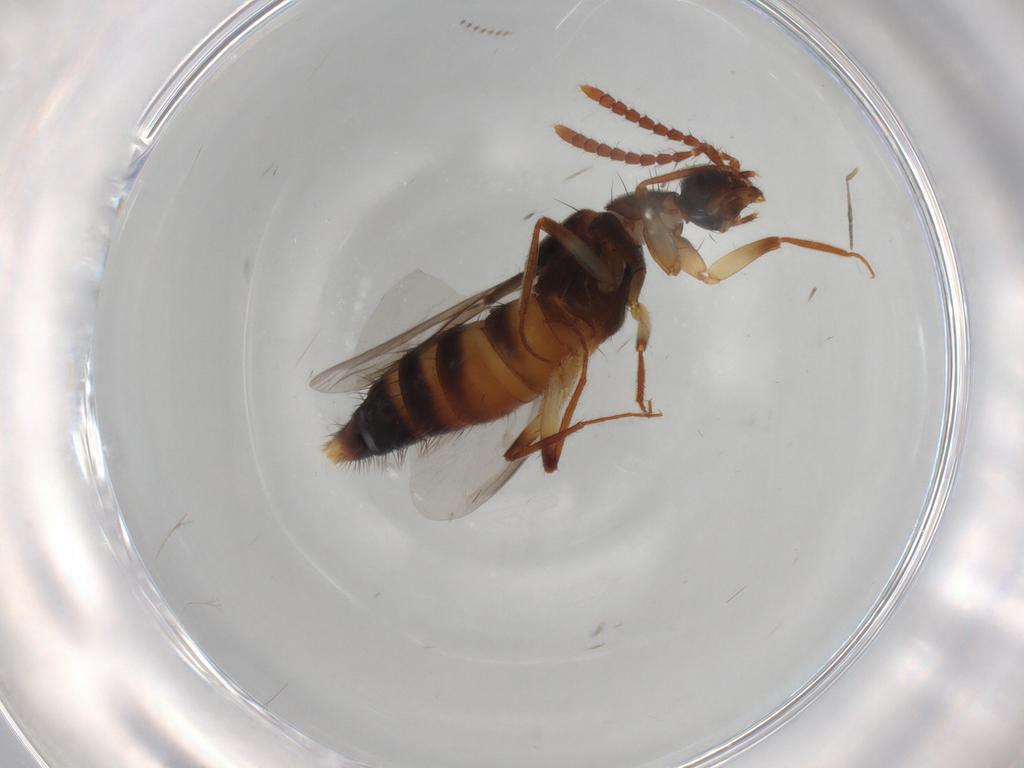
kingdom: Animalia
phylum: Arthropoda
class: Insecta
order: Coleoptera
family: Staphylinidae
